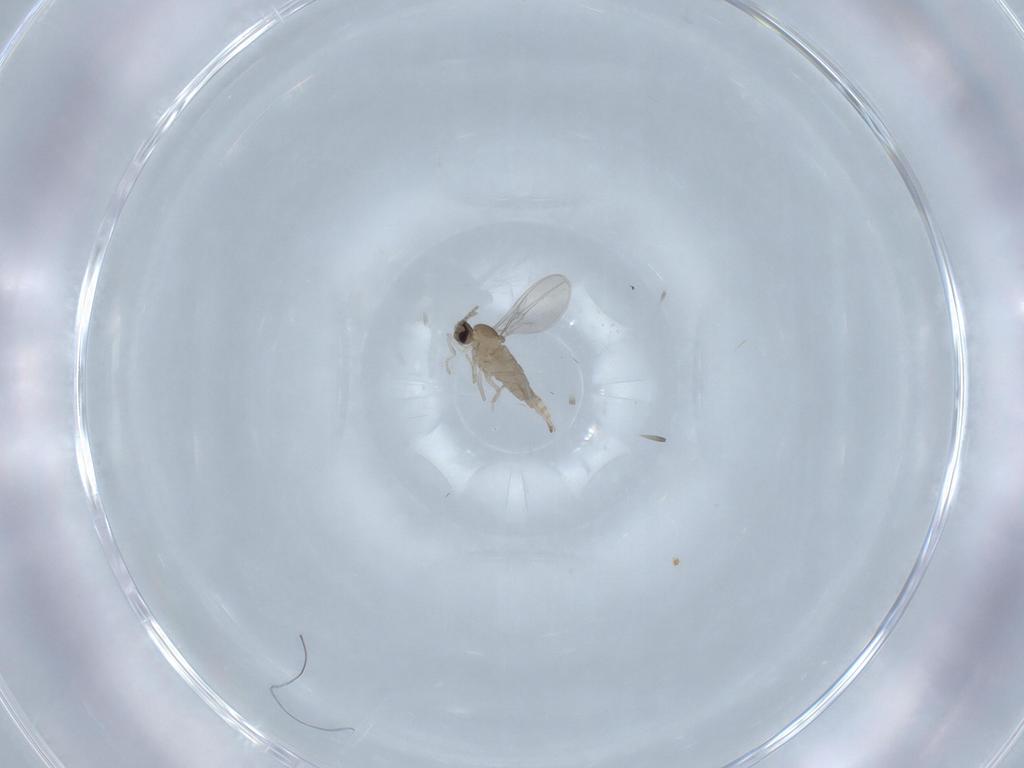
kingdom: Animalia
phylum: Arthropoda
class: Insecta
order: Diptera
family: Cecidomyiidae
